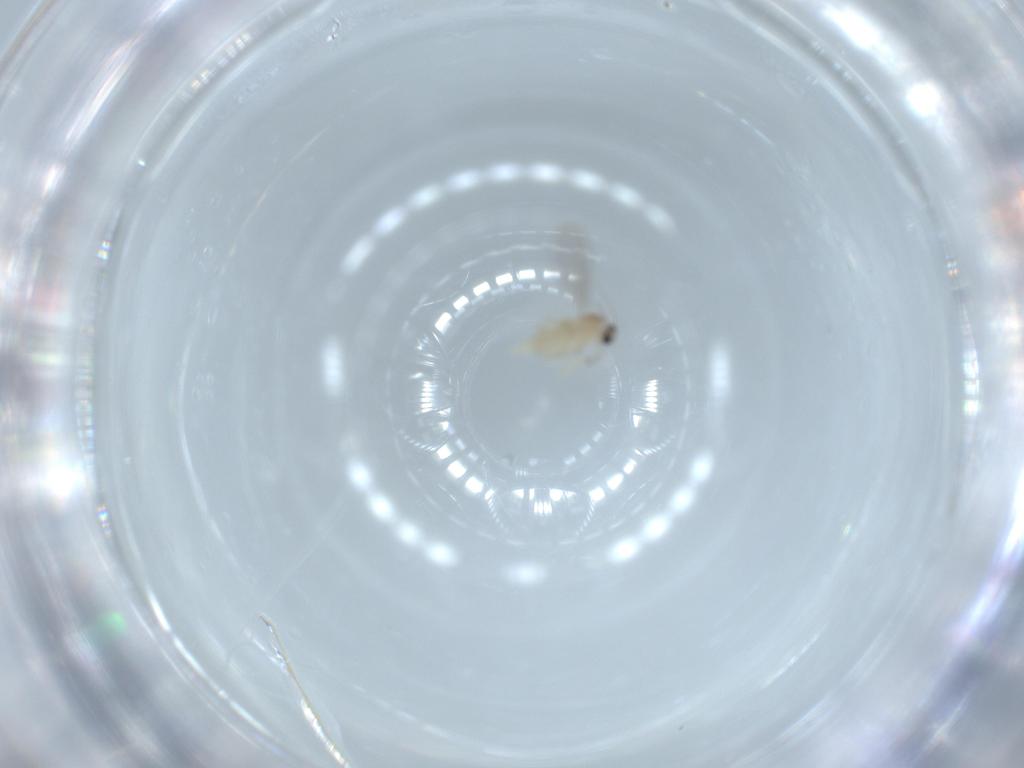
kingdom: Animalia
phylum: Arthropoda
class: Insecta
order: Diptera
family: Cecidomyiidae
